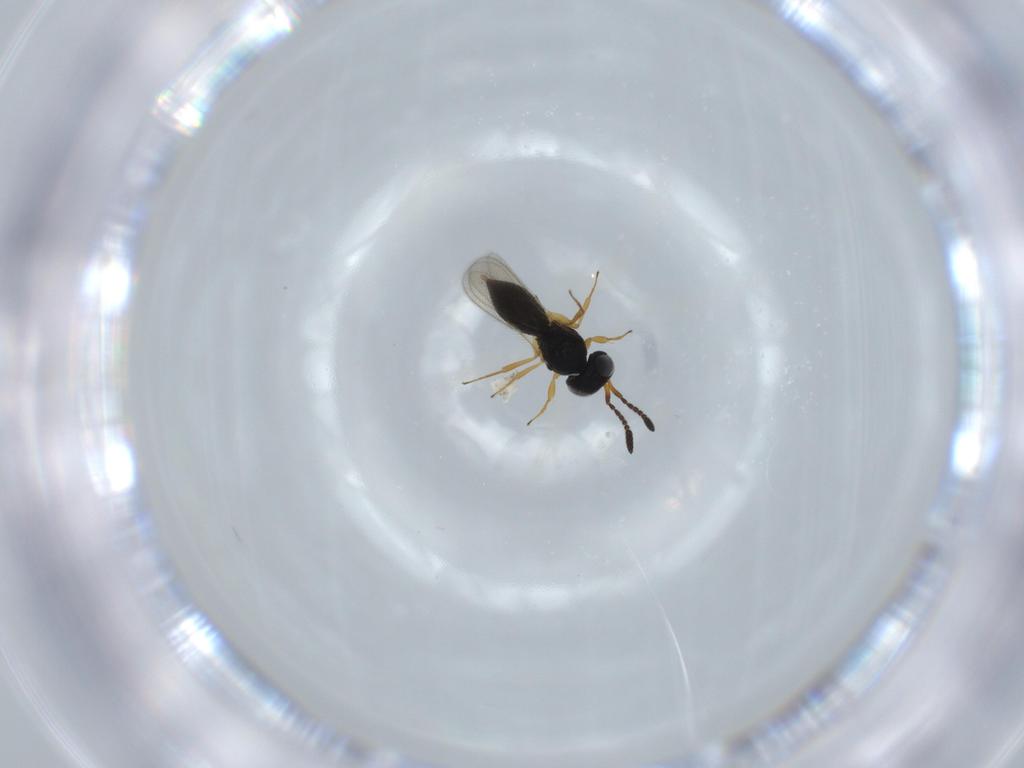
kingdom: Animalia
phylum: Arthropoda
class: Insecta
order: Hymenoptera
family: Scelionidae
